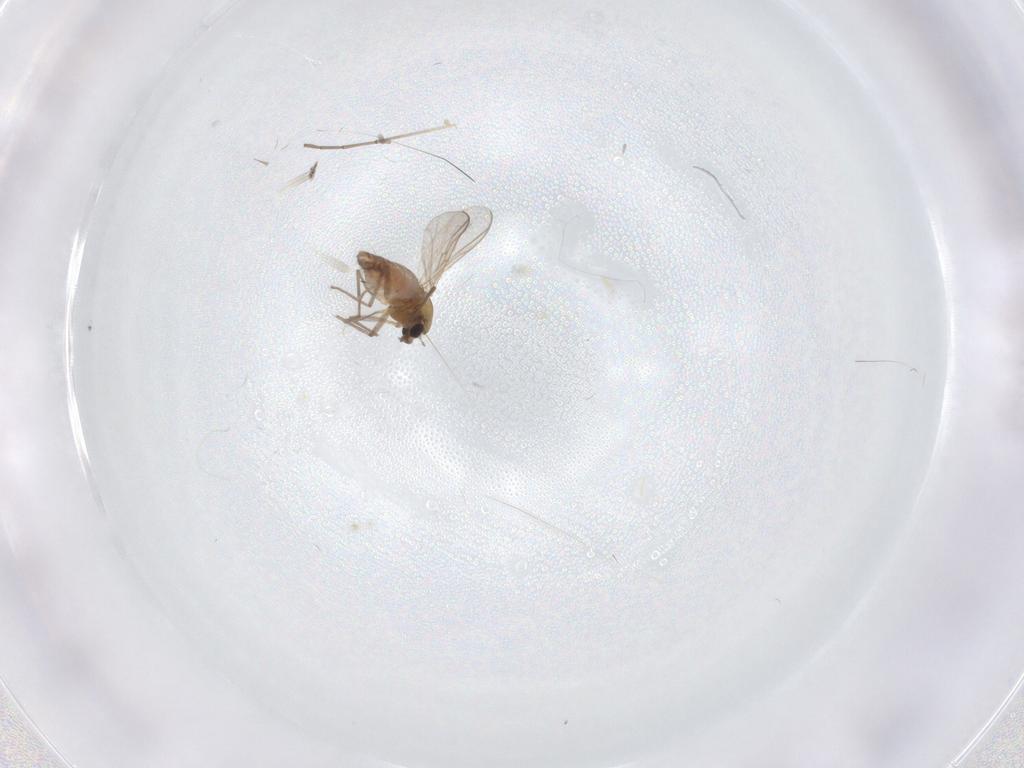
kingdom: Animalia
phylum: Arthropoda
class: Insecta
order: Diptera
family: Chironomidae
